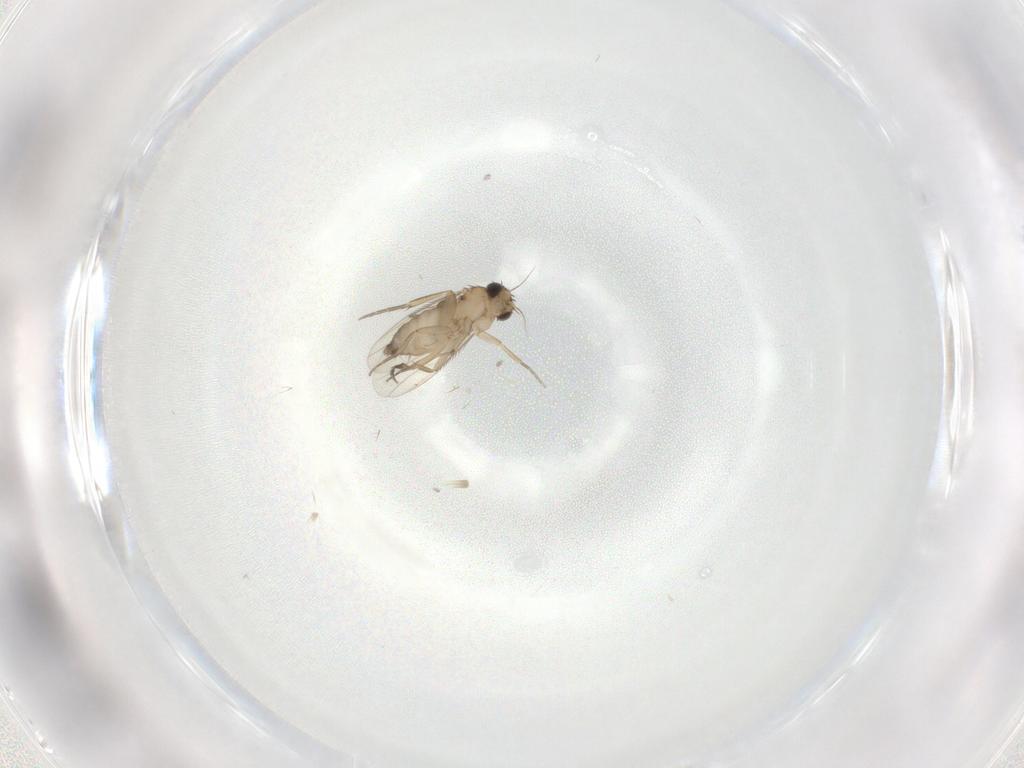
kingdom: Animalia
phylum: Arthropoda
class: Insecta
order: Diptera
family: Phoridae
